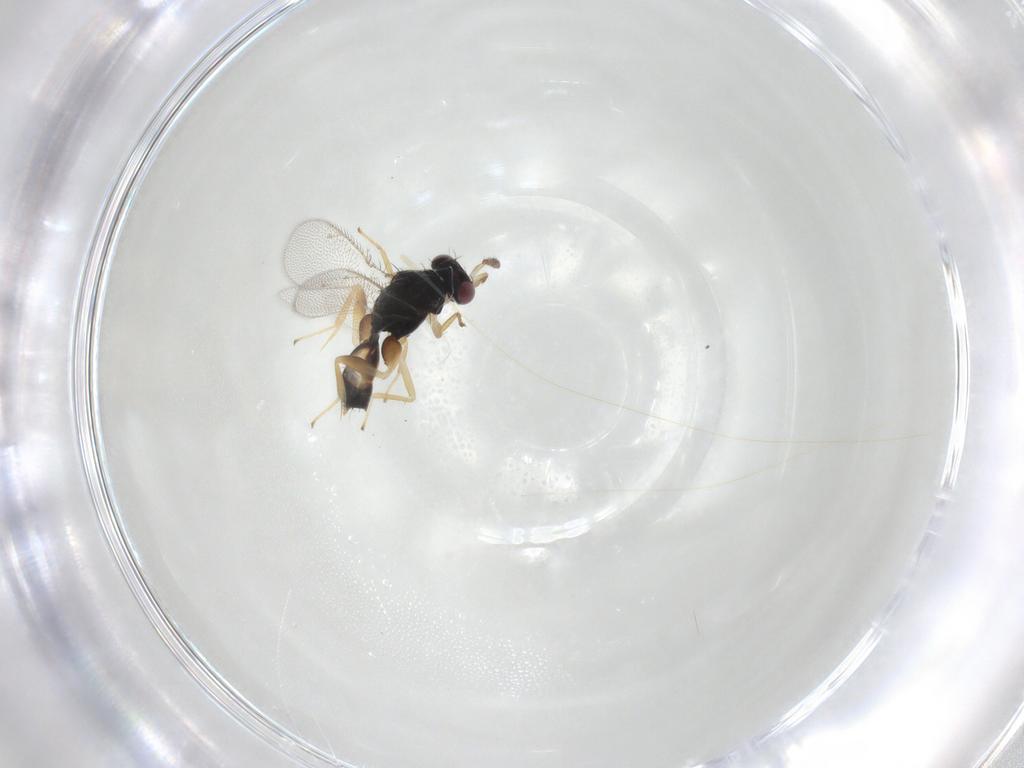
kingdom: Animalia
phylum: Arthropoda
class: Insecta
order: Hymenoptera
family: Eulophidae
